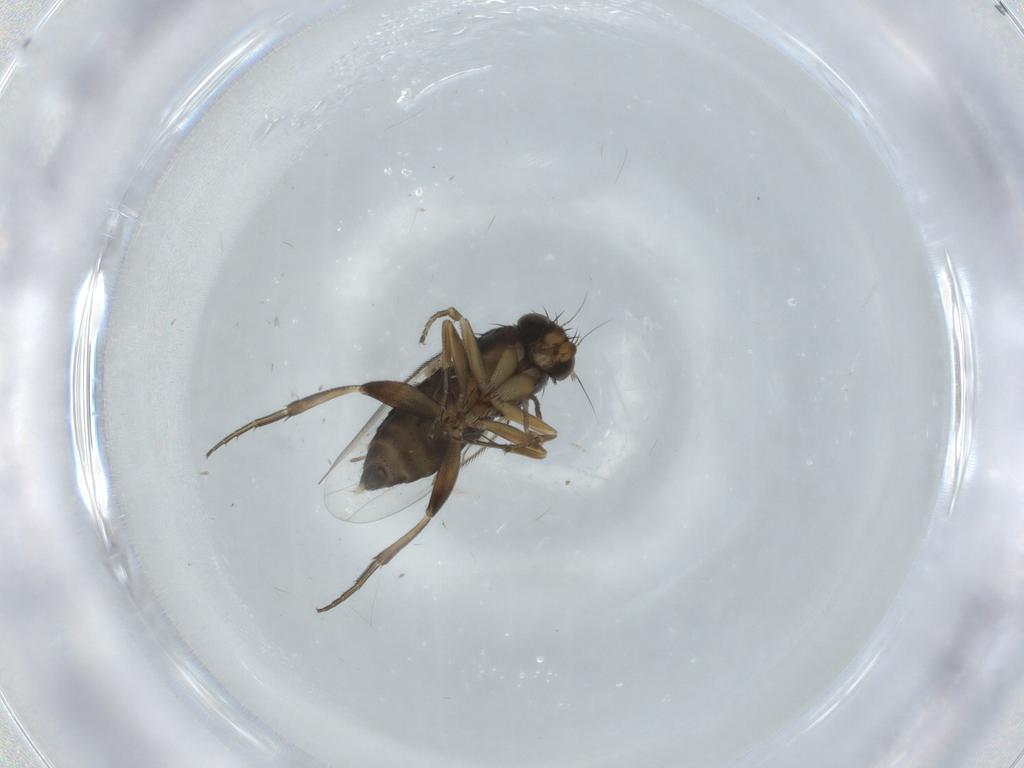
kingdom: Animalia
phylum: Arthropoda
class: Insecta
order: Diptera
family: Phoridae
